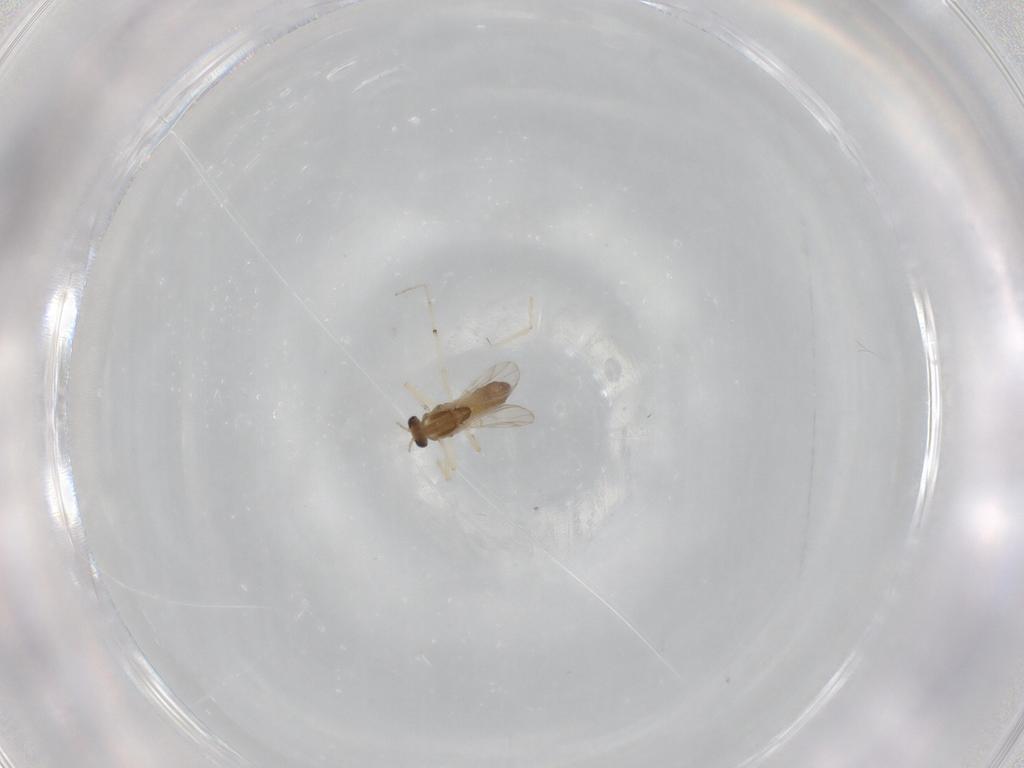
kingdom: Animalia
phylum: Arthropoda
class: Insecta
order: Diptera
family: Chironomidae
